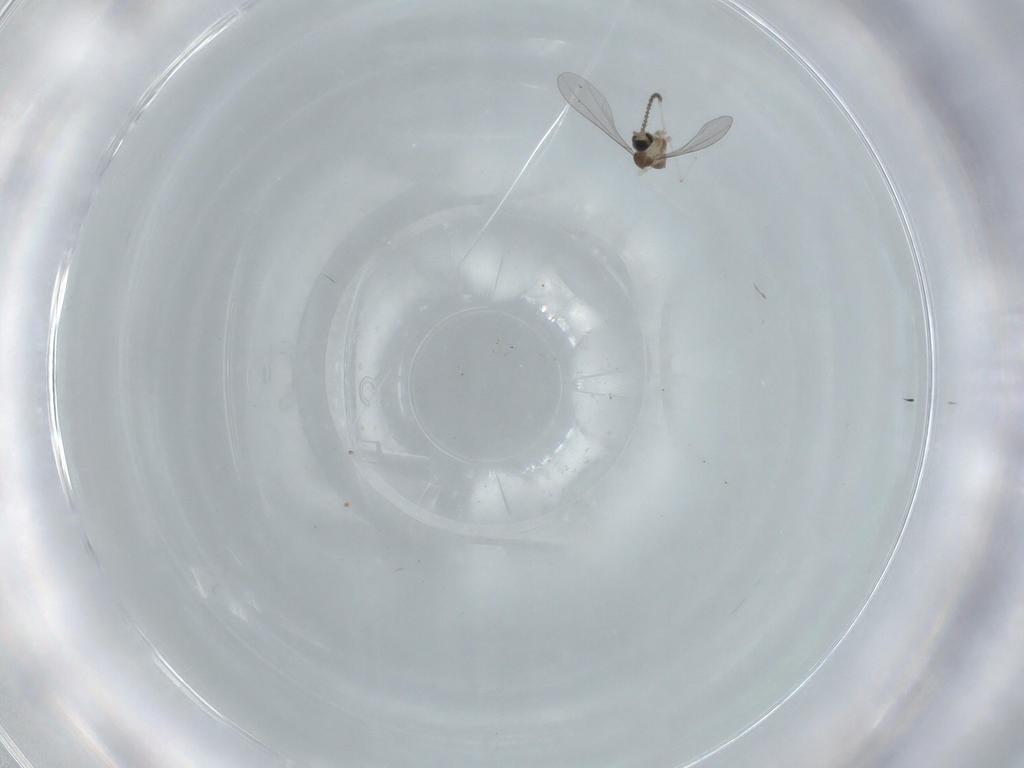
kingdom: Animalia
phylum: Arthropoda
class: Insecta
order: Diptera
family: Cecidomyiidae
